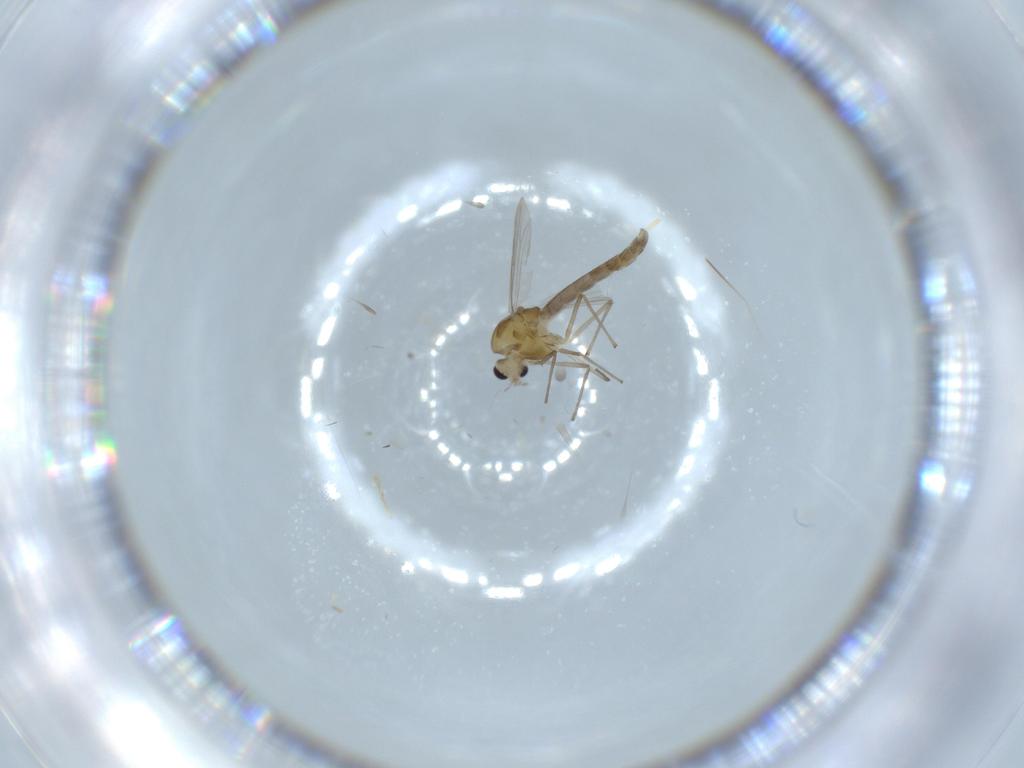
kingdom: Animalia
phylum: Arthropoda
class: Insecta
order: Diptera
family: Chironomidae
